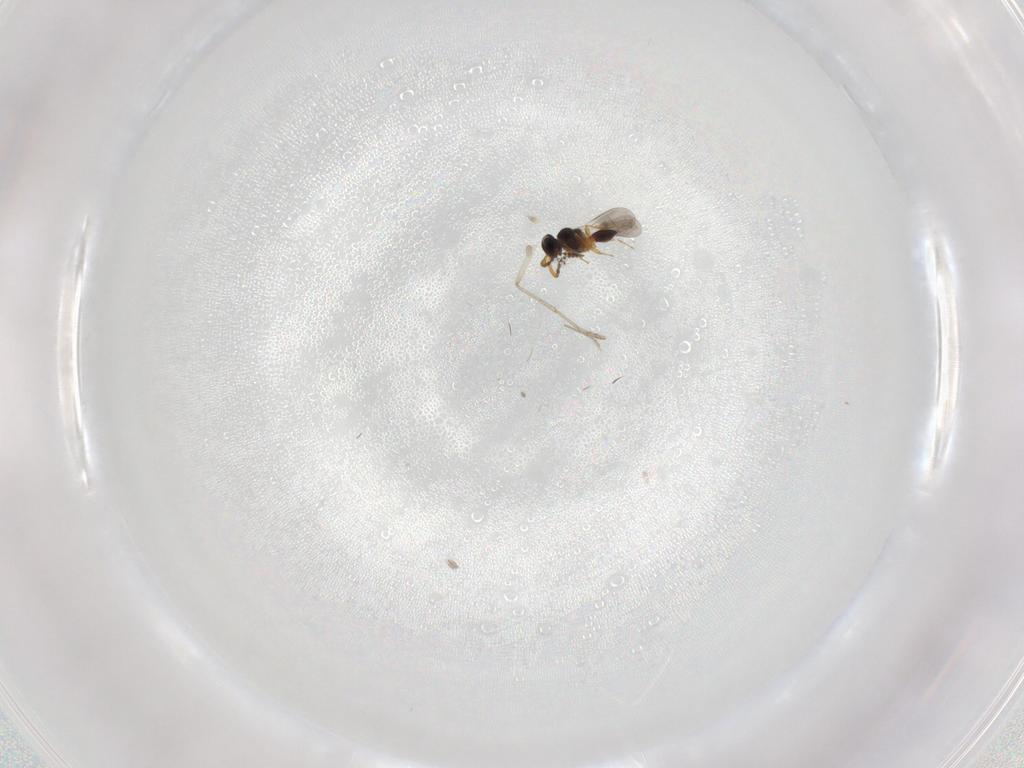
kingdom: Animalia
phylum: Arthropoda
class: Insecta
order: Hymenoptera
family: Platygastridae
